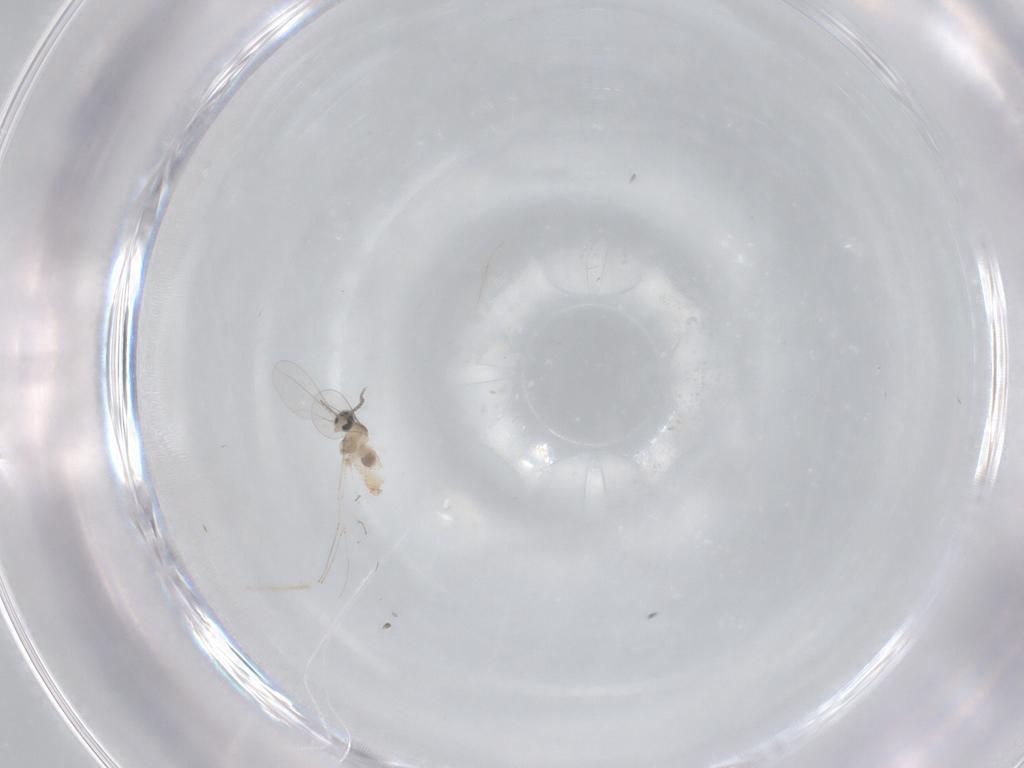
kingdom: Animalia
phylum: Arthropoda
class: Insecta
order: Diptera
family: Cecidomyiidae
